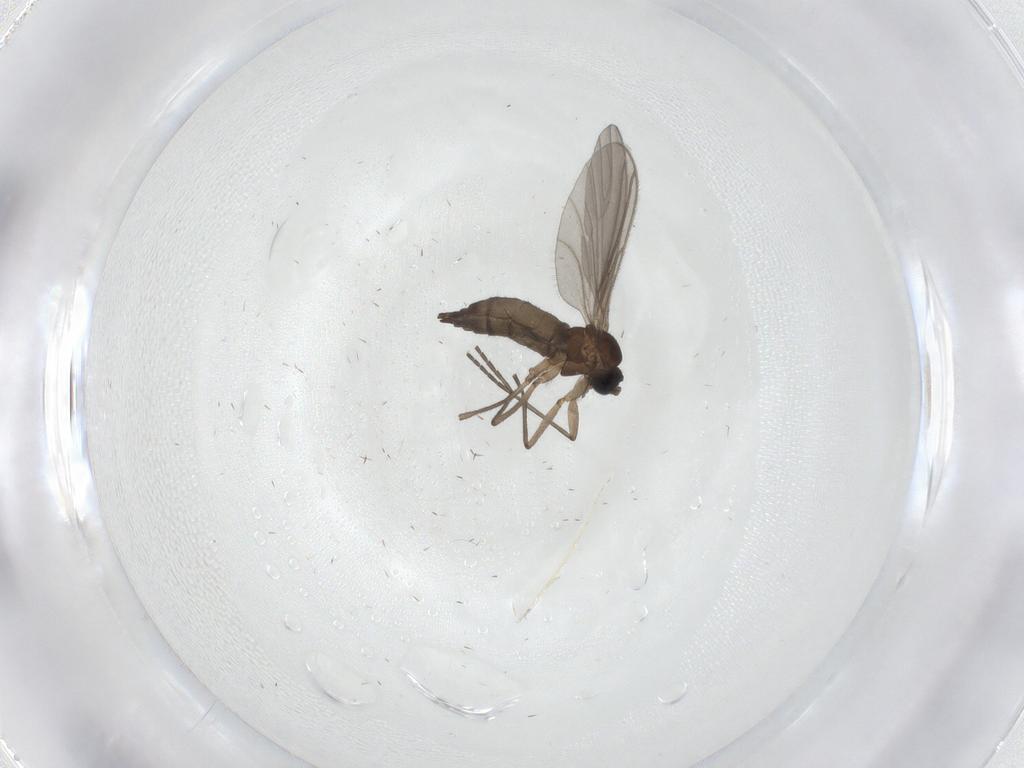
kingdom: Animalia
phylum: Arthropoda
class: Insecta
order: Diptera
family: Culicidae
